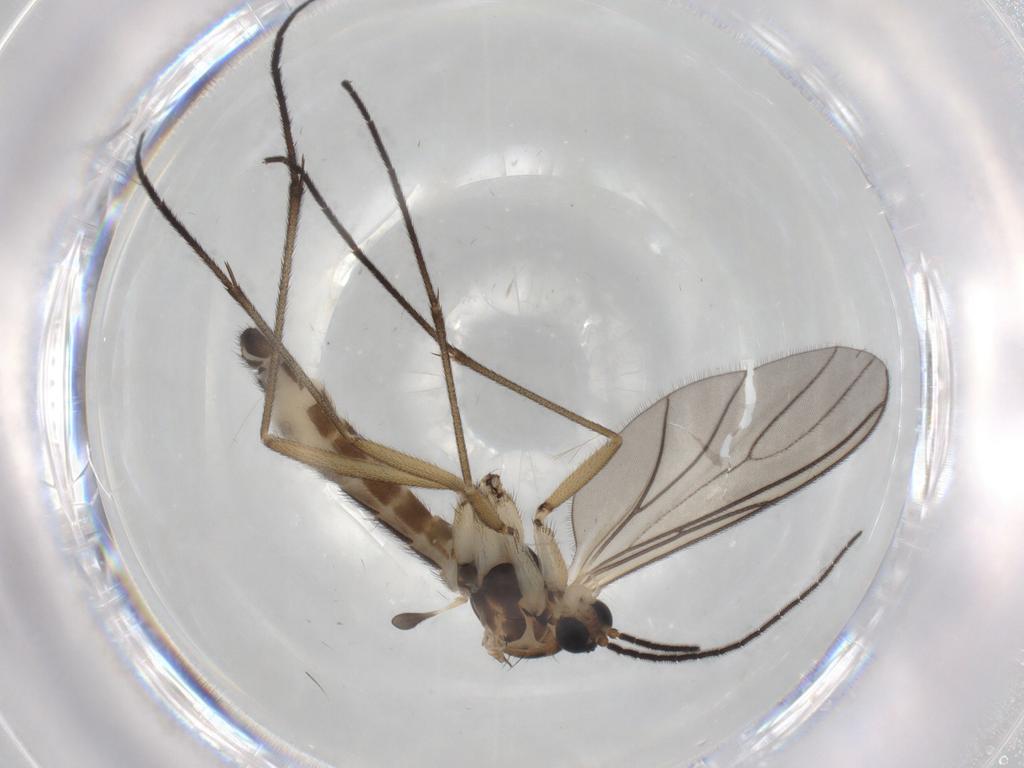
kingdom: Animalia
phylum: Arthropoda
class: Insecta
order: Diptera
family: Sciaridae
